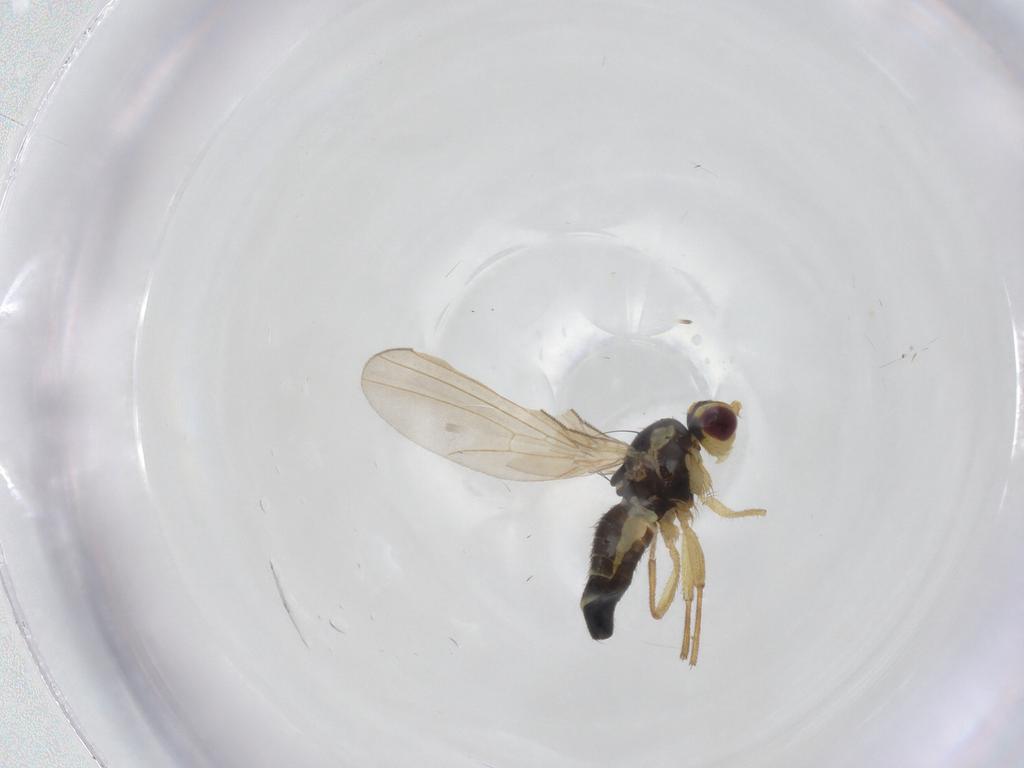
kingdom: Animalia
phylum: Arthropoda
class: Insecta
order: Diptera
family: Agromyzidae
